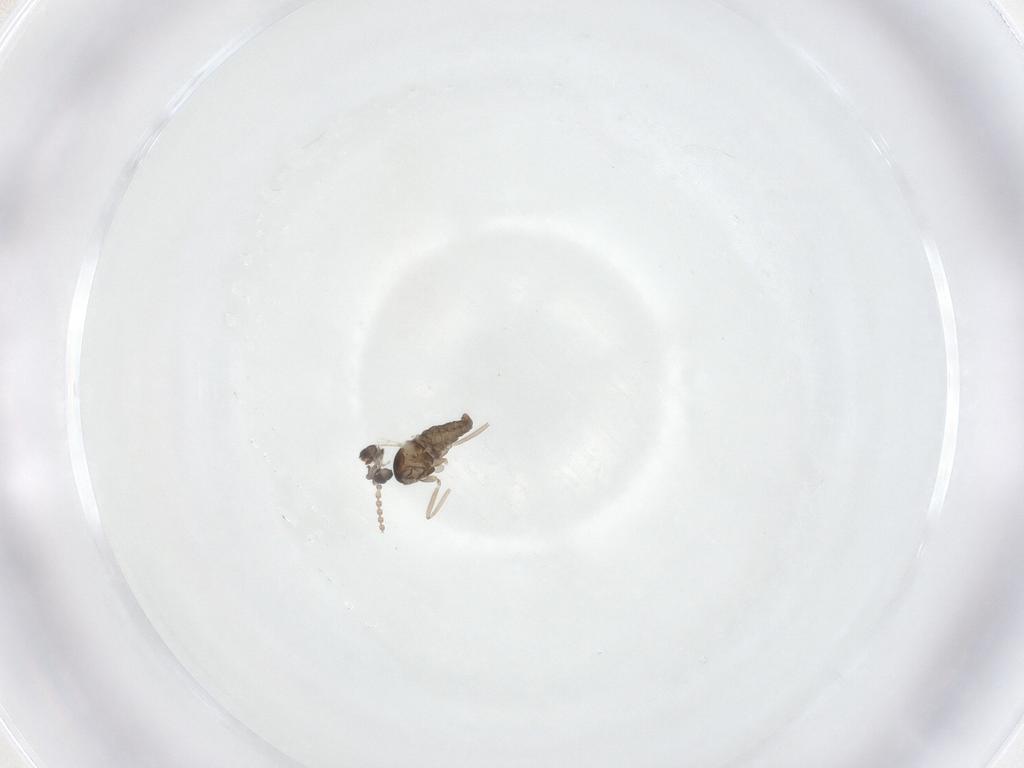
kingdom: Animalia
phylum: Arthropoda
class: Insecta
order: Diptera
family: Cecidomyiidae
